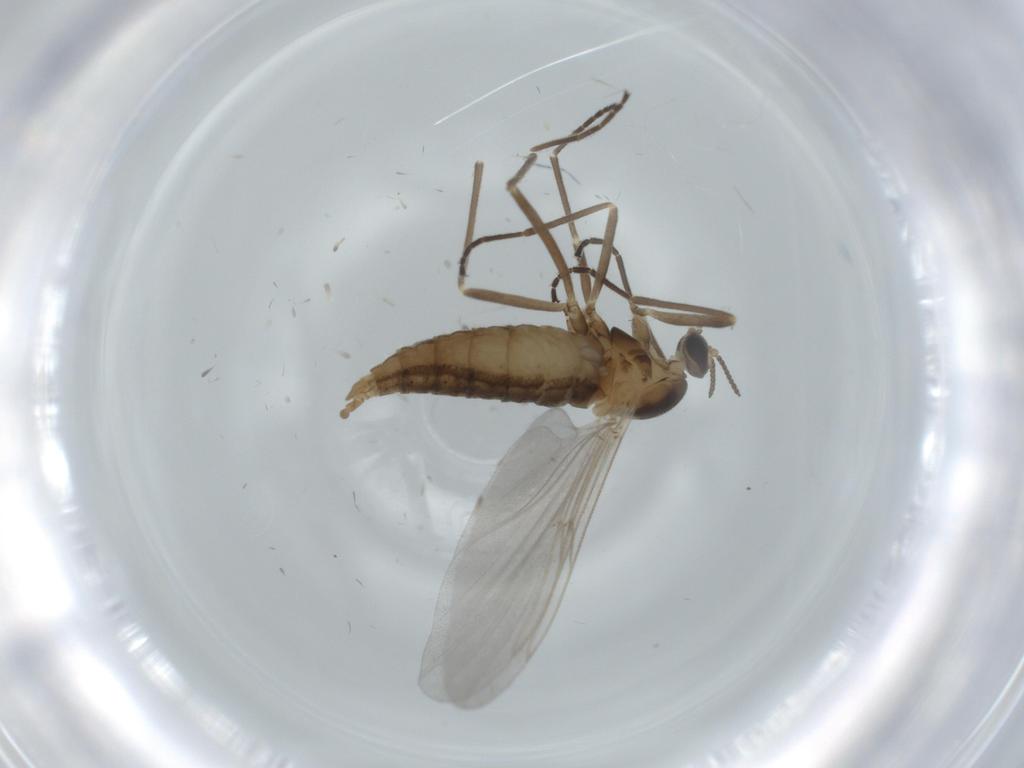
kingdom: Animalia
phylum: Arthropoda
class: Insecta
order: Diptera
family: Cecidomyiidae
